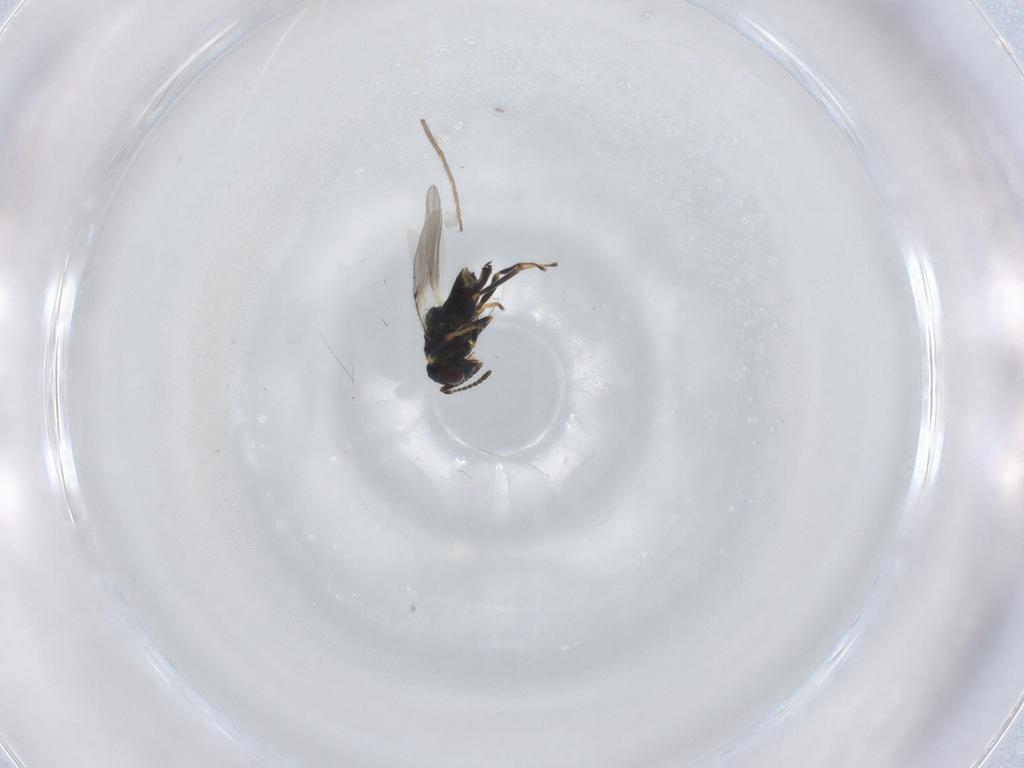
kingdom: Animalia
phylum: Arthropoda
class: Insecta
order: Hymenoptera
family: Encyrtidae
